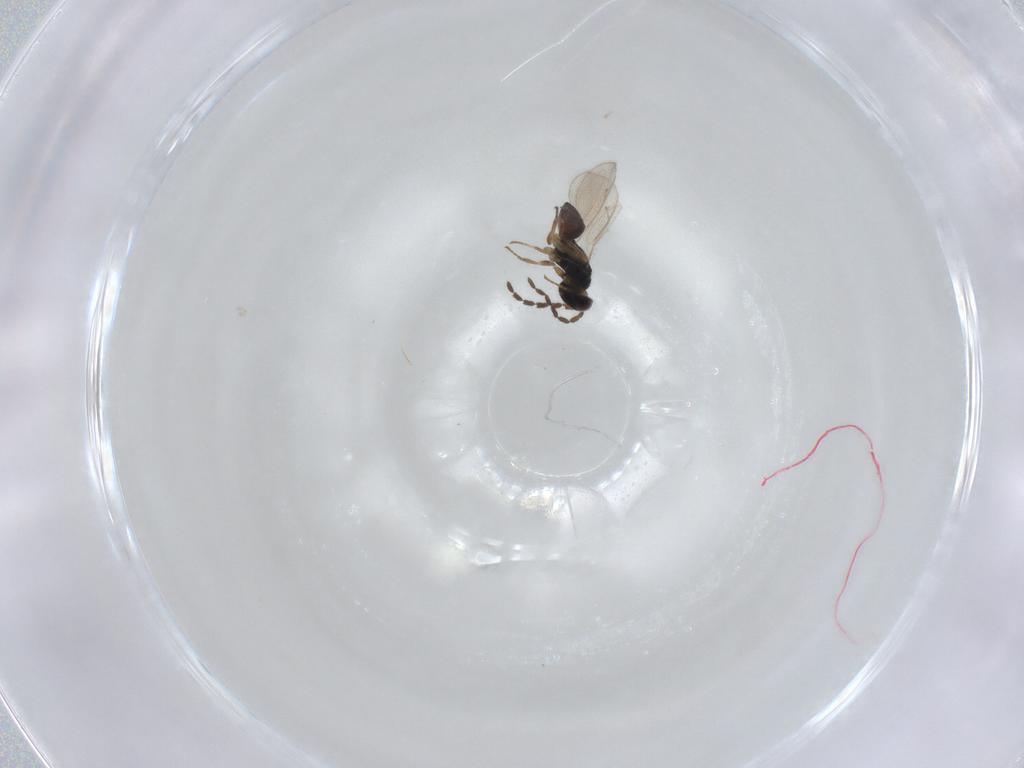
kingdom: Animalia
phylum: Arthropoda
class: Insecta
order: Hymenoptera
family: Eulophidae
